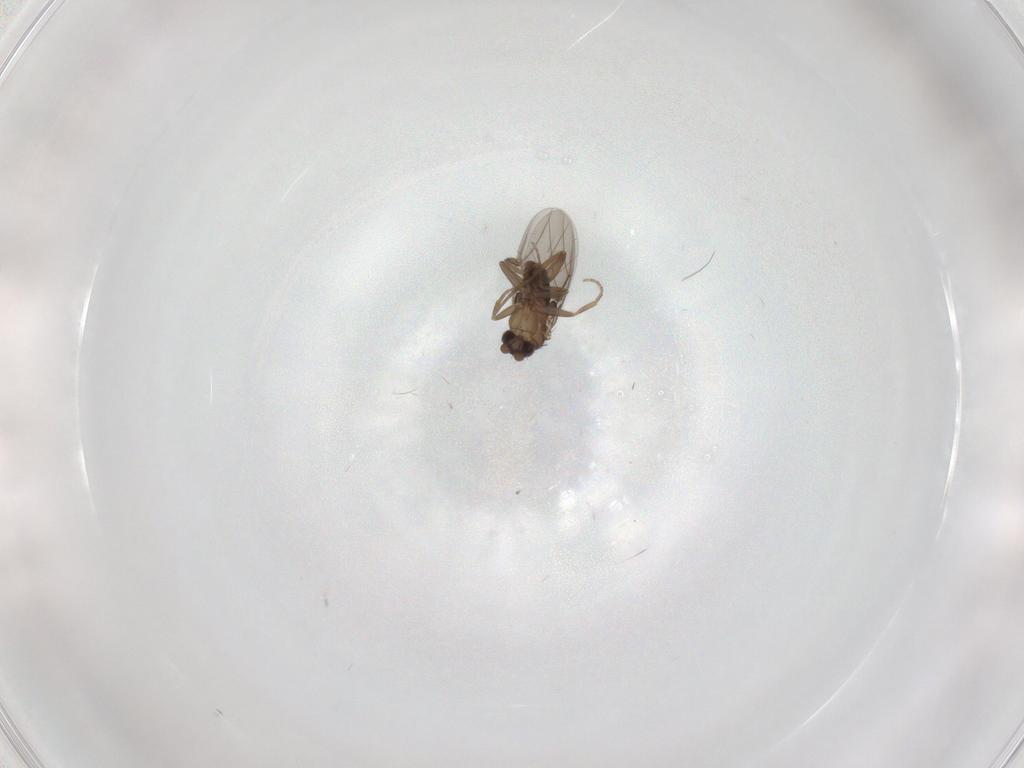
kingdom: Animalia
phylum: Arthropoda
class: Insecta
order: Diptera
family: Phoridae
